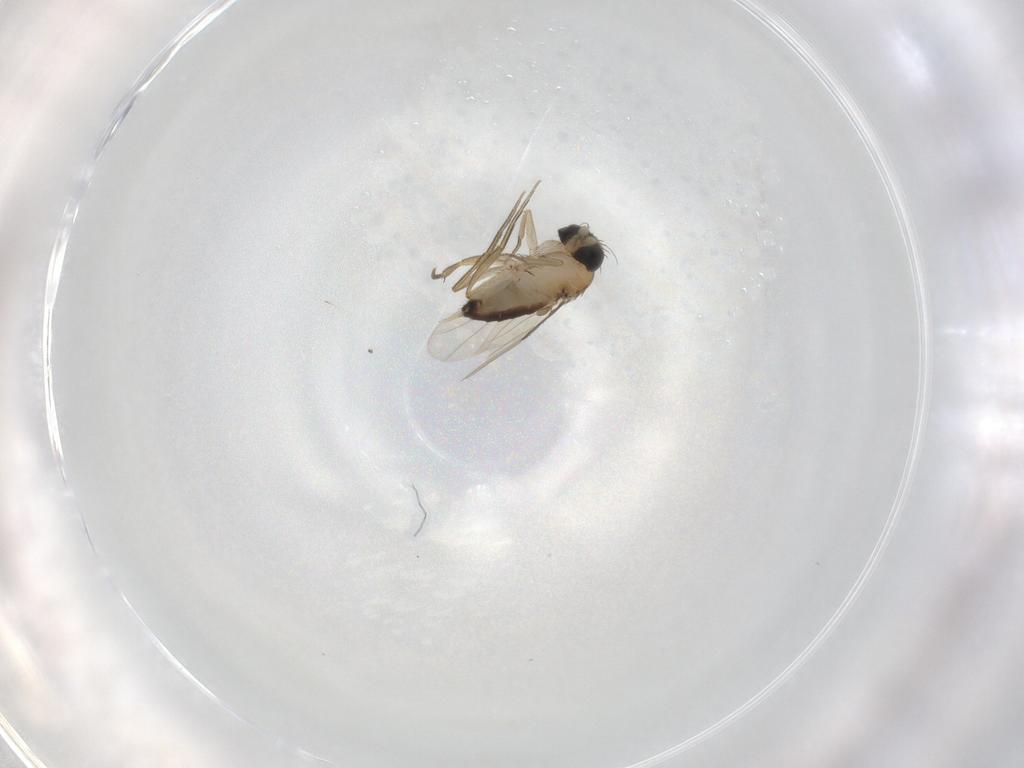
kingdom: Animalia
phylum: Arthropoda
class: Insecta
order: Diptera
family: Phoridae
